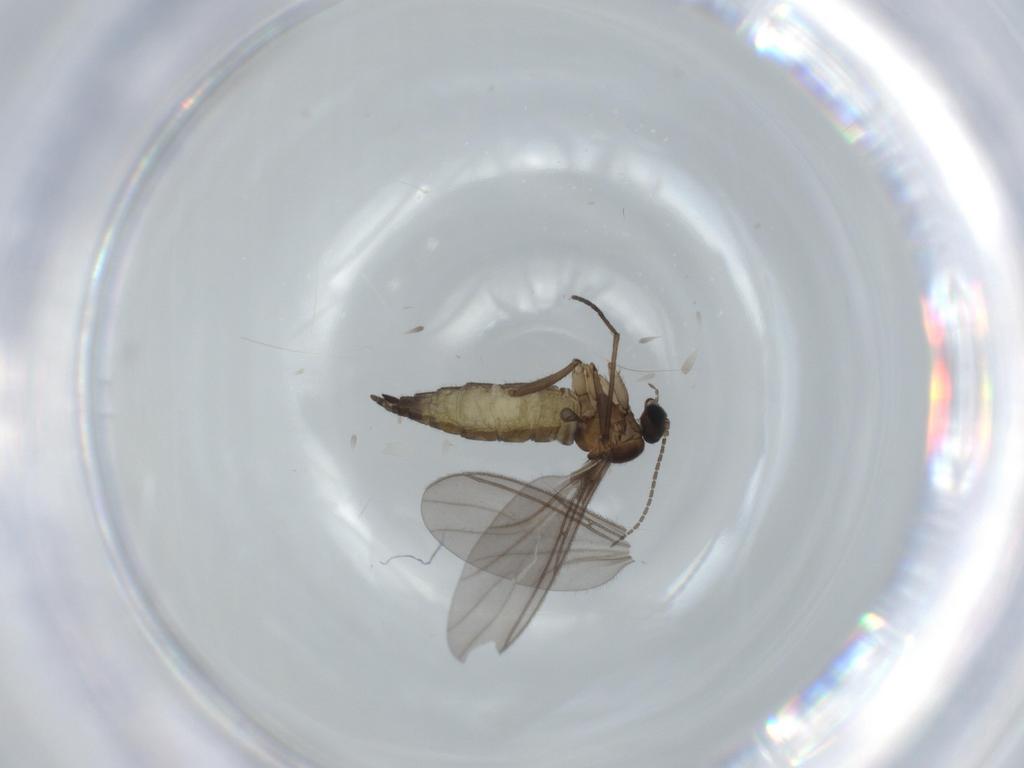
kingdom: Animalia
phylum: Arthropoda
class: Insecta
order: Diptera
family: Sciaridae
